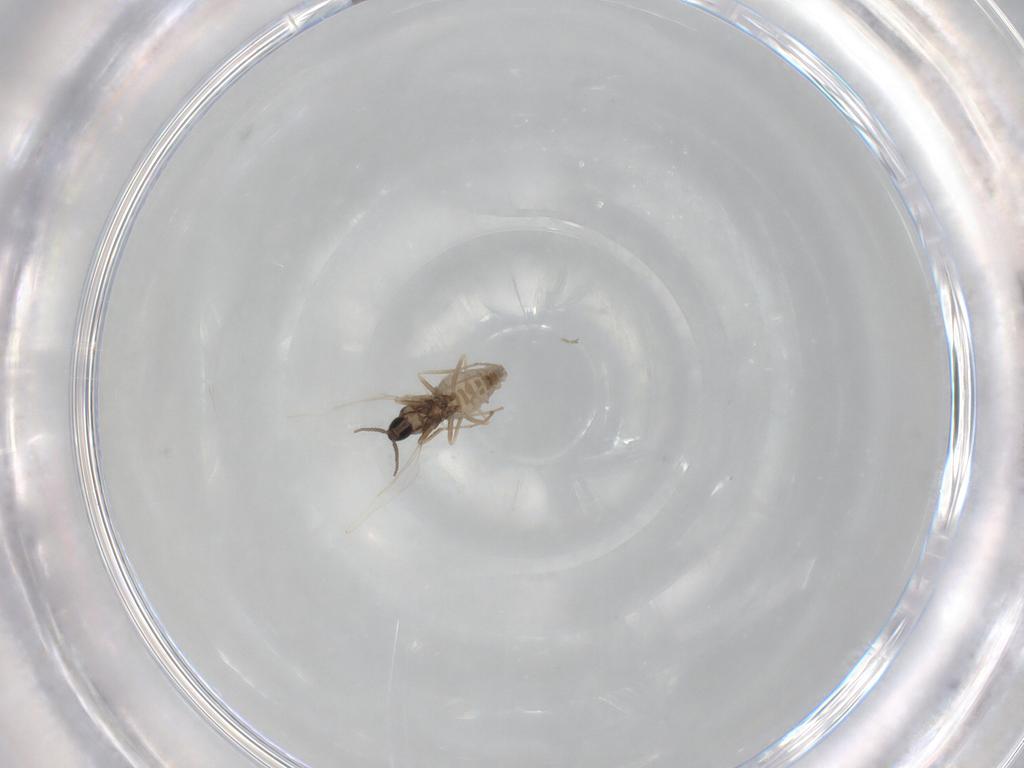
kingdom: Animalia
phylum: Arthropoda
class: Insecta
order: Diptera
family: Cecidomyiidae
